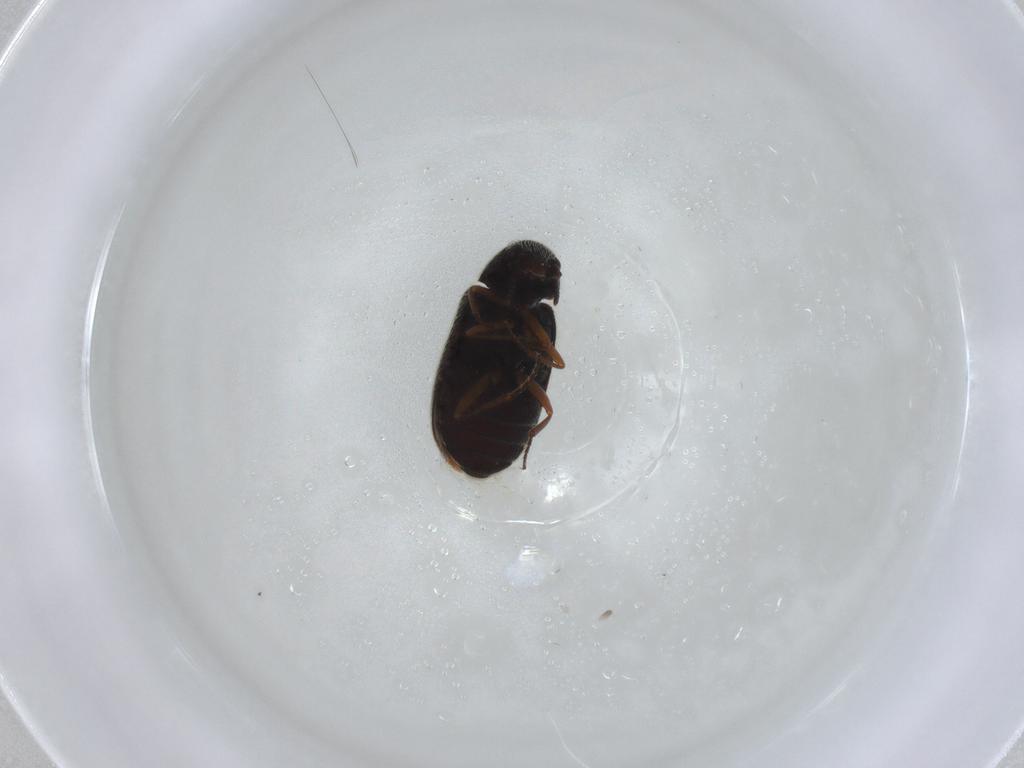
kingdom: Animalia
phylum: Arthropoda
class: Insecta
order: Coleoptera
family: Rhadalidae
